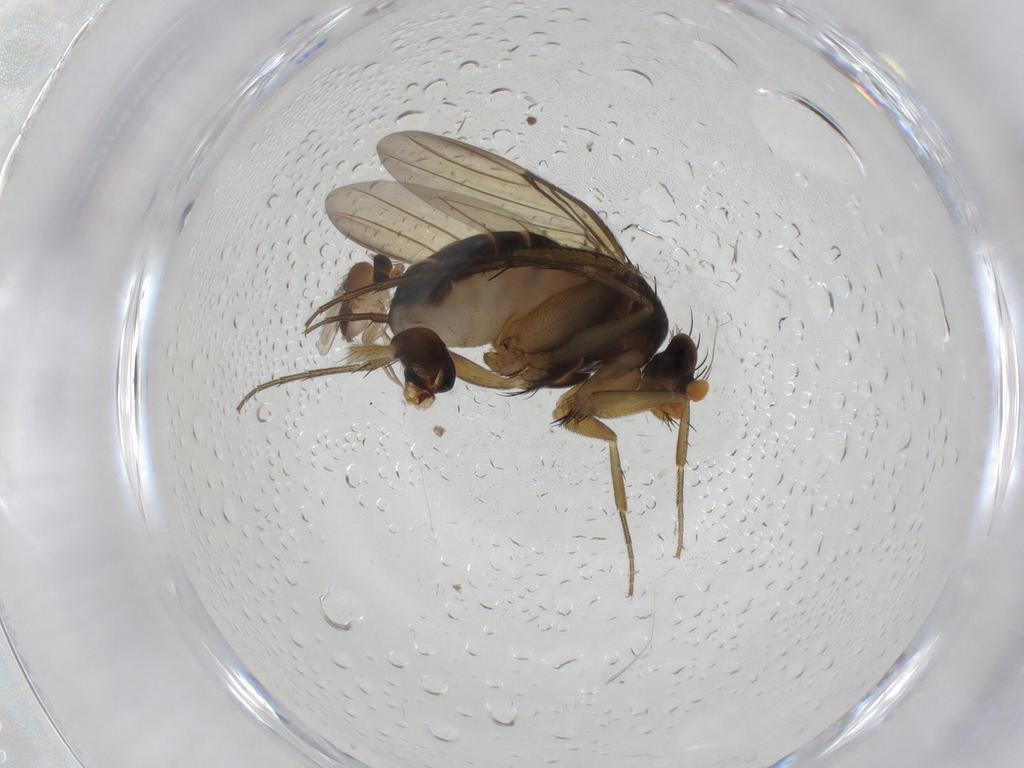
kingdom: Animalia
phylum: Arthropoda
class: Insecta
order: Diptera
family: Phoridae
